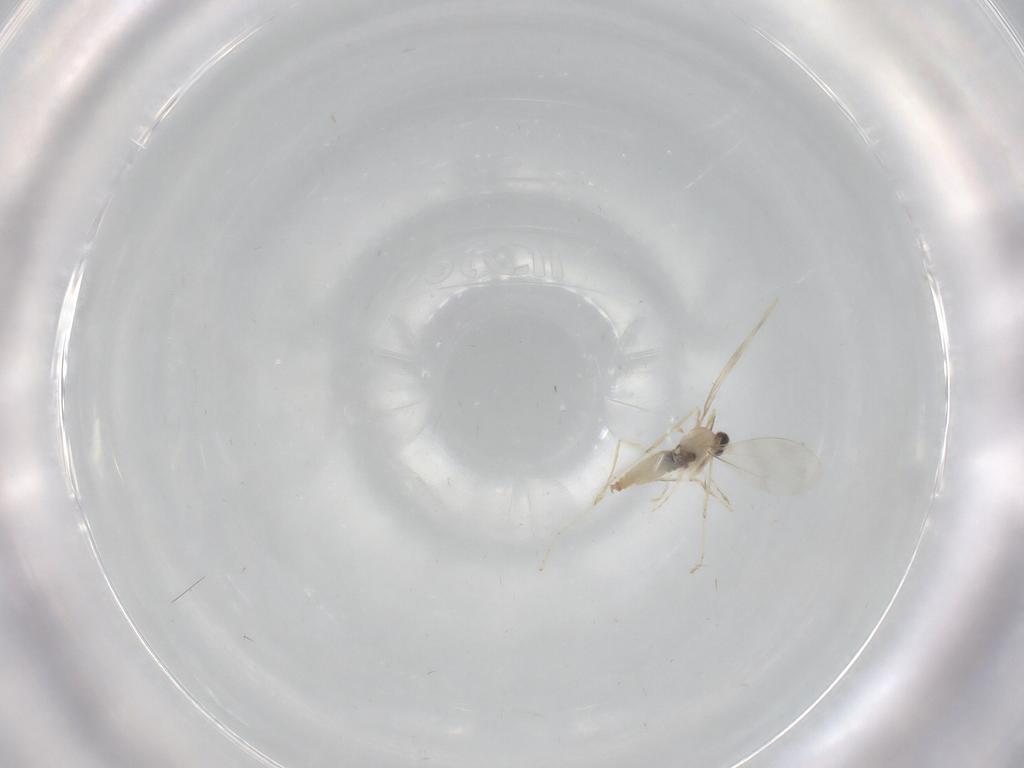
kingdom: Animalia
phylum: Arthropoda
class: Insecta
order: Diptera
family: Cecidomyiidae
